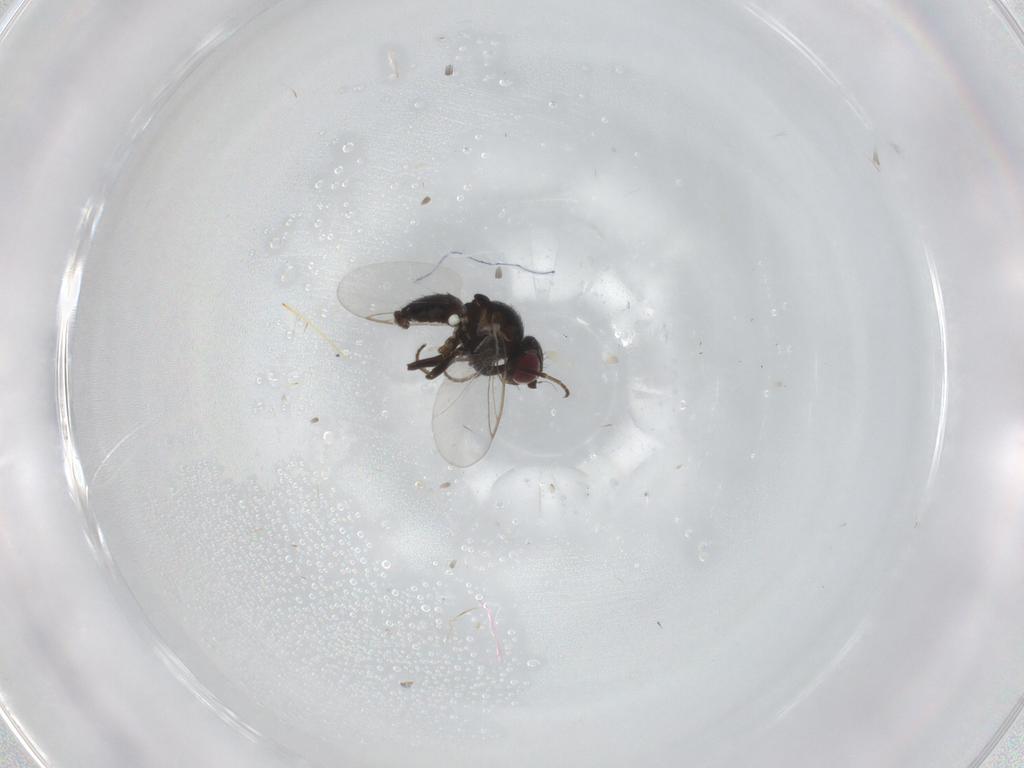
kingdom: Animalia
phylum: Arthropoda
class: Insecta
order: Diptera
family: Agromyzidae
